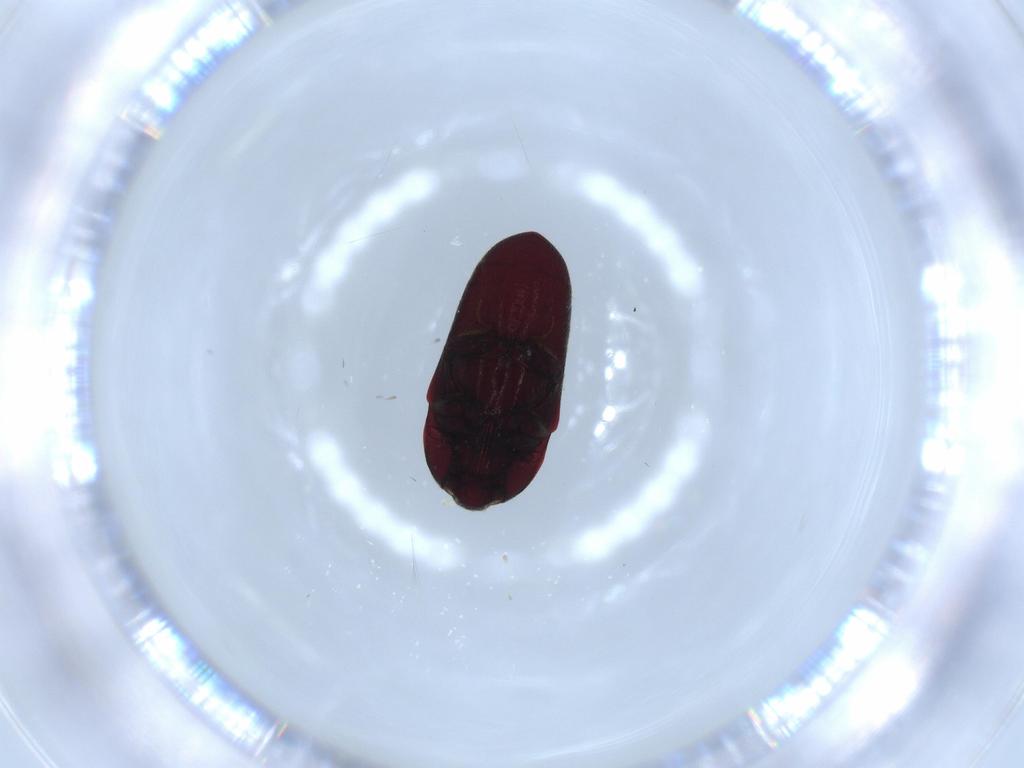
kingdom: Animalia
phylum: Arthropoda
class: Insecta
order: Coleoptera
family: Throscidae
